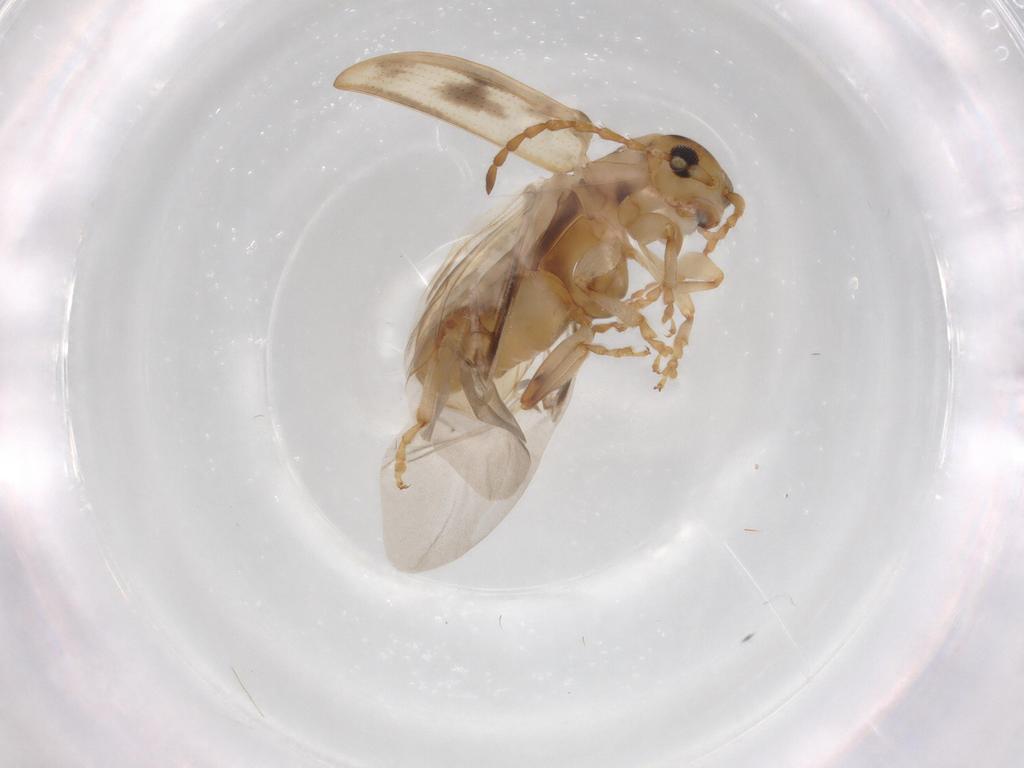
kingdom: Animalia
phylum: Arthropoda
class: Insecta
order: Coleoptera
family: Chrysomelidae
